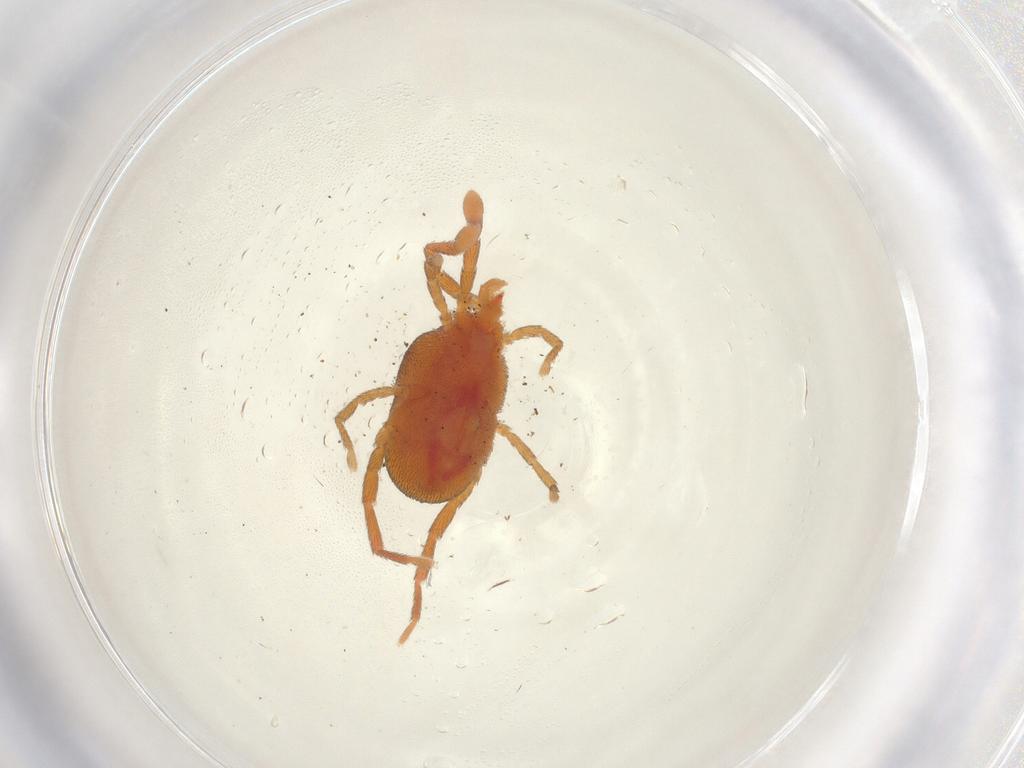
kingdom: Animalia
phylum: Arthropoda
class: Arachnida
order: Trombidiformes
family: Erythraeidae
